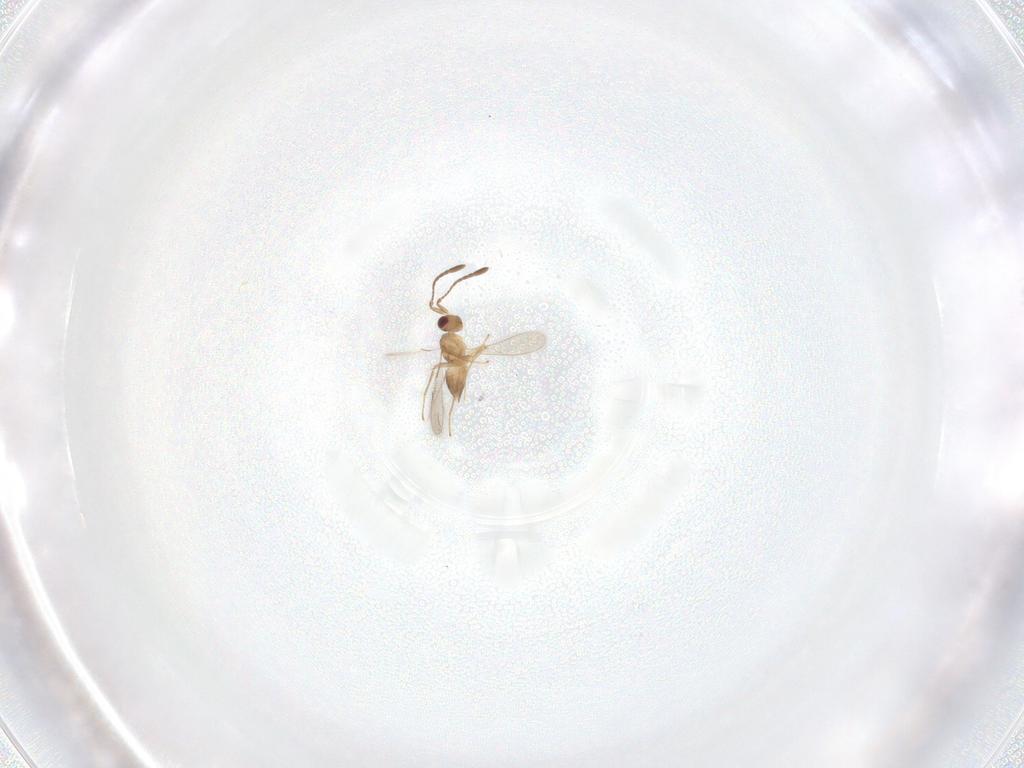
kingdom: Animalia
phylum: Arthropoda
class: Insecta
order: Hymenoptera
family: Mymaridae
